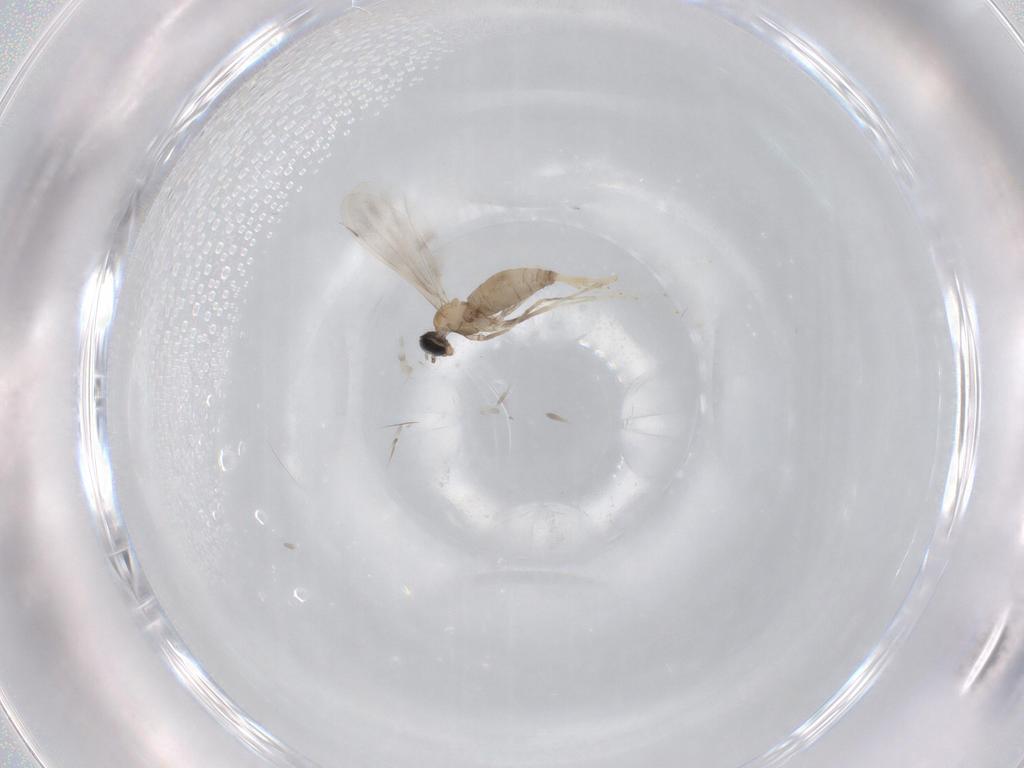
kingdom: Animalia
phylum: Arthropoda
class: Insecta
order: Diptera
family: Cecidomyiidae
